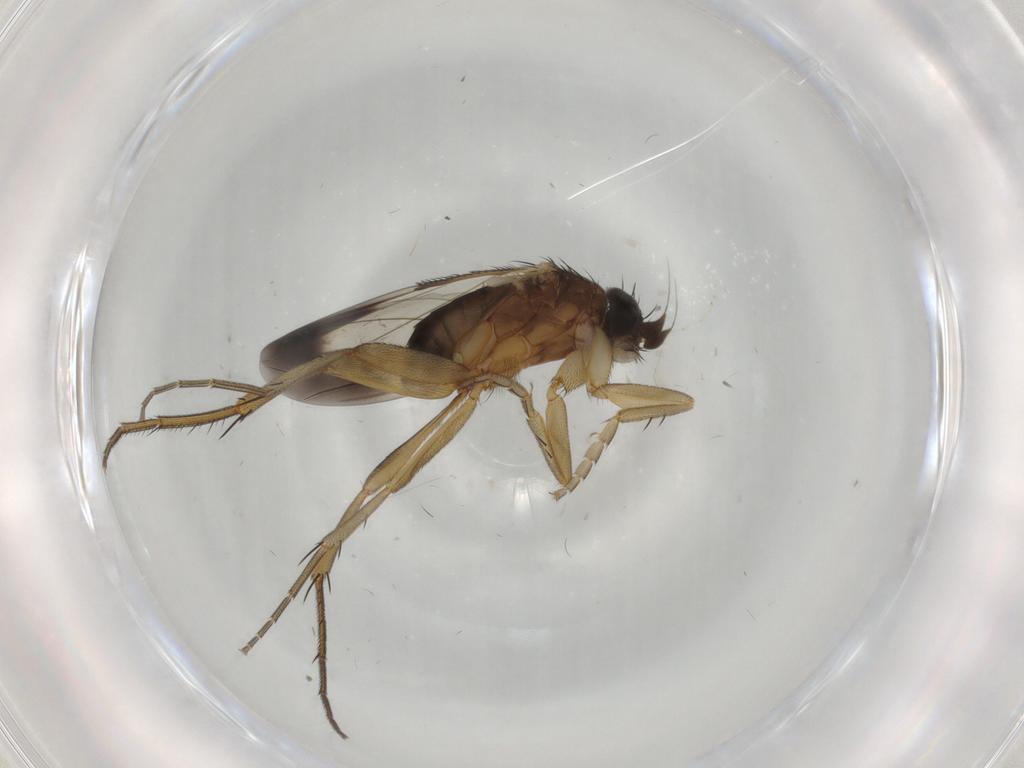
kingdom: Animalia
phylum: Arthropoda
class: Insecta
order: Diptera
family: Phoridae
